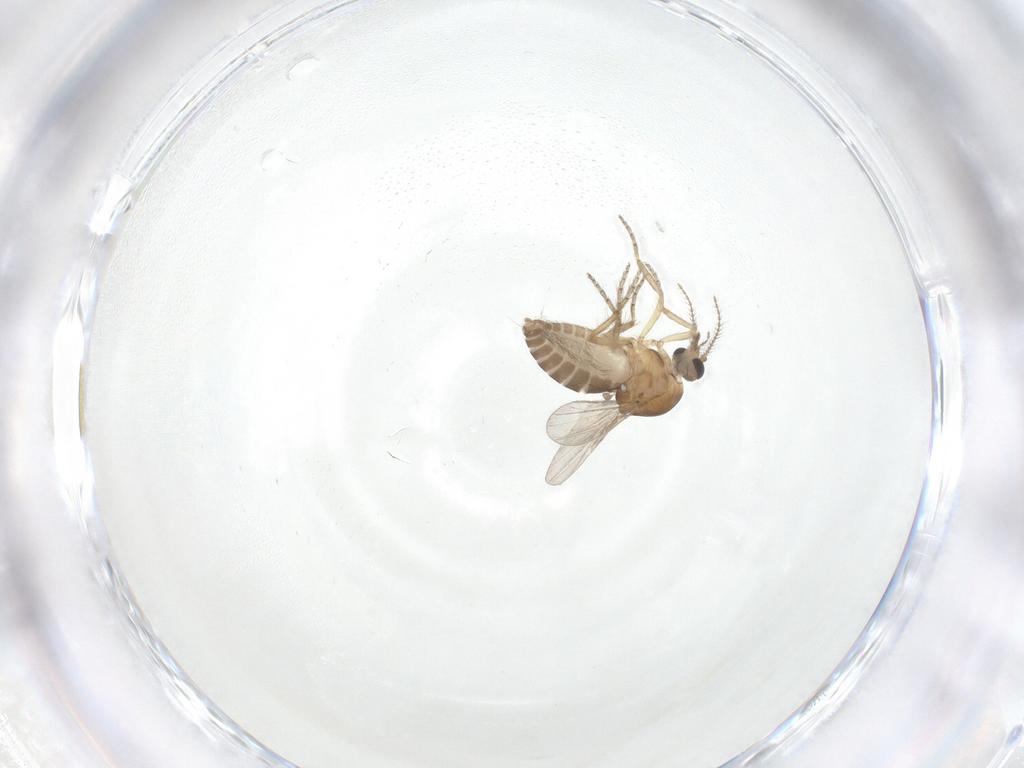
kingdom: Animalia
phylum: Arthropoda
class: Insecta
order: Diptera
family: Ceratopogonidae
